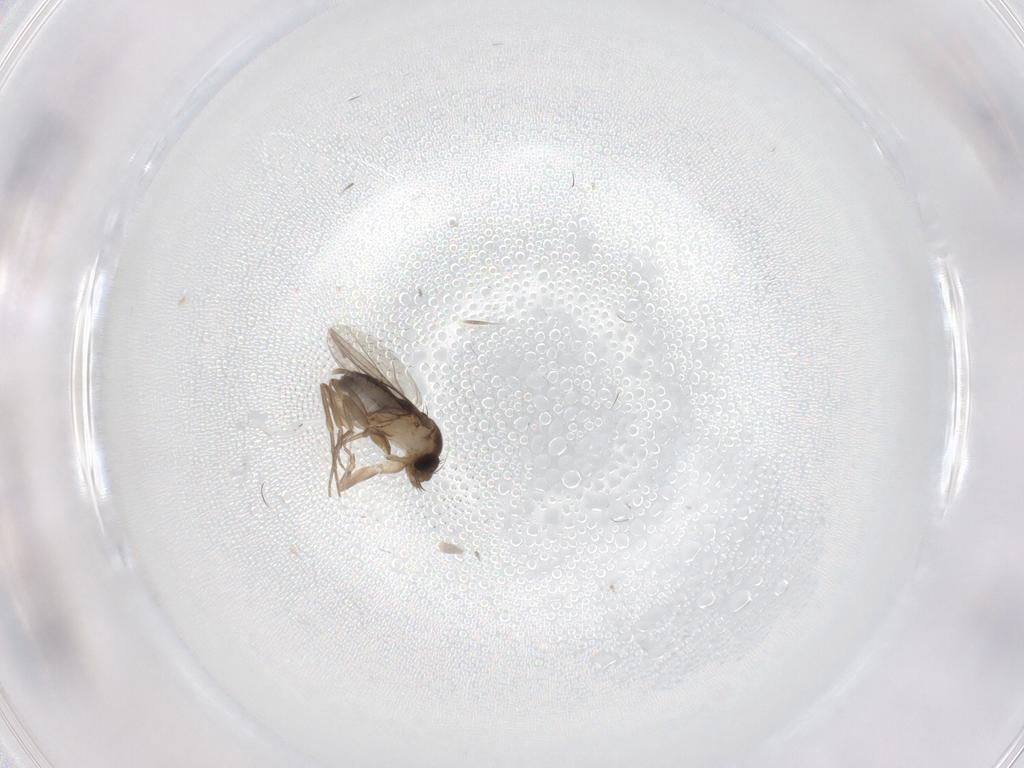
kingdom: Animalia
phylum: Arthropoda
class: Insecta
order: Diptera
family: Phoridae
